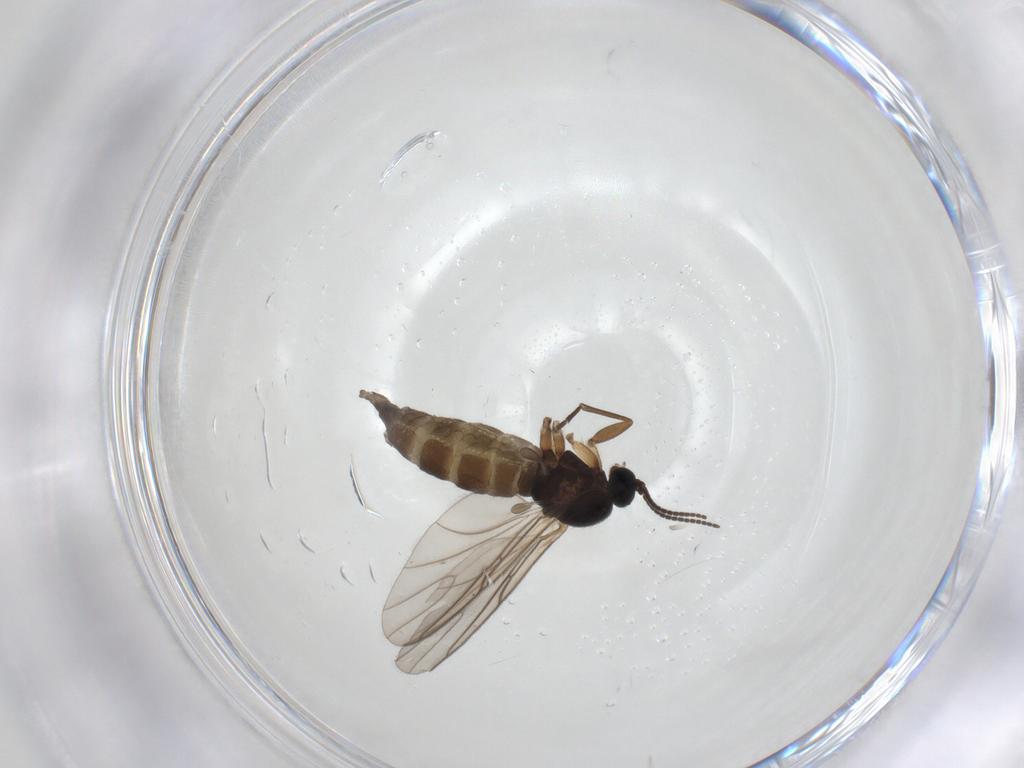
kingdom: Animalia
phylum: Arthropoda
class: Insecta
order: Diptera
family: Sciaridae
